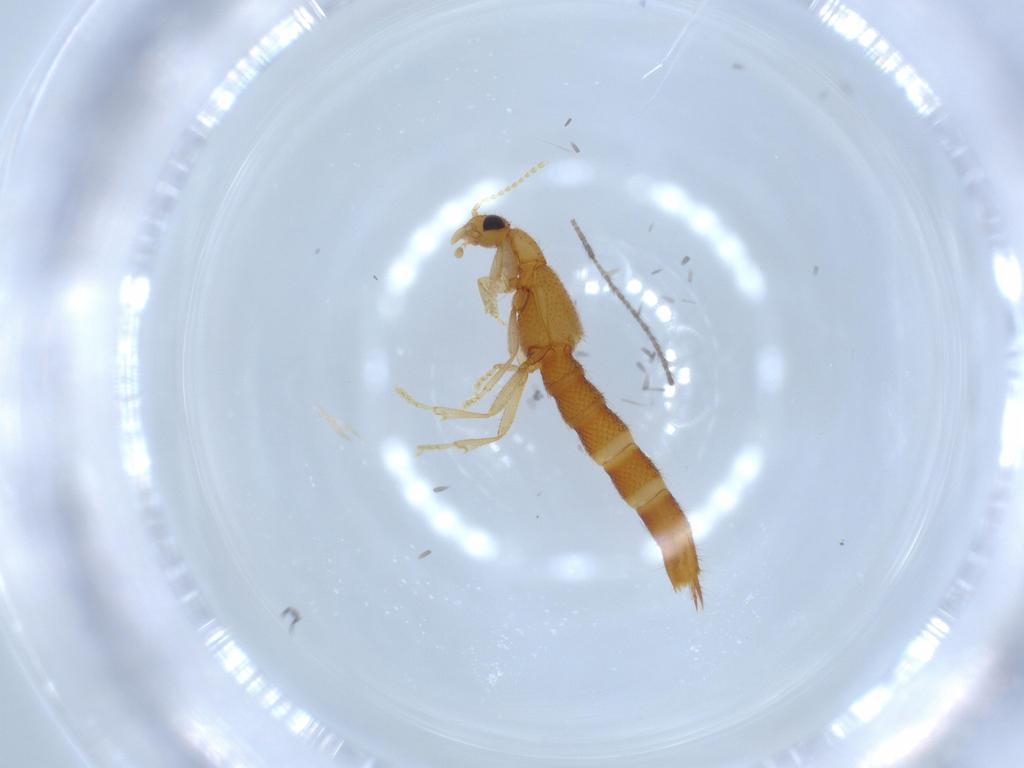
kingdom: Animalia
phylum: Arthropoda
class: Insecta
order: Coleoptera
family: Staphylinidae
